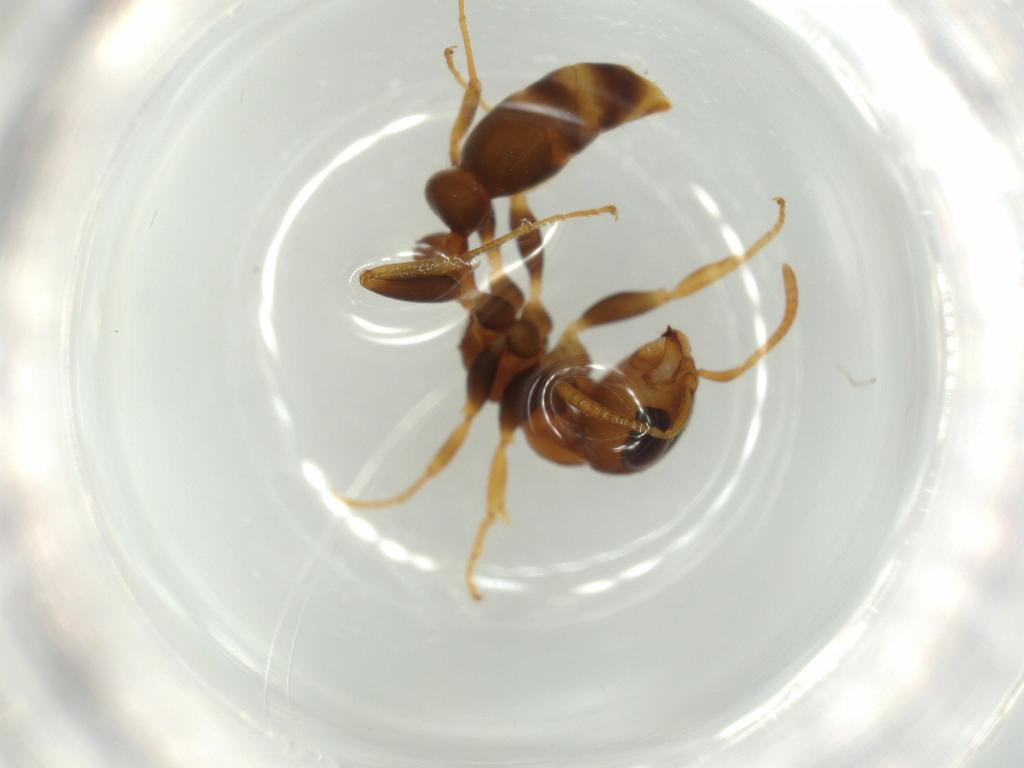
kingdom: Animalia
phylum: Arthropoda
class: Insecta
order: Hymenoptera
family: Formicidae
